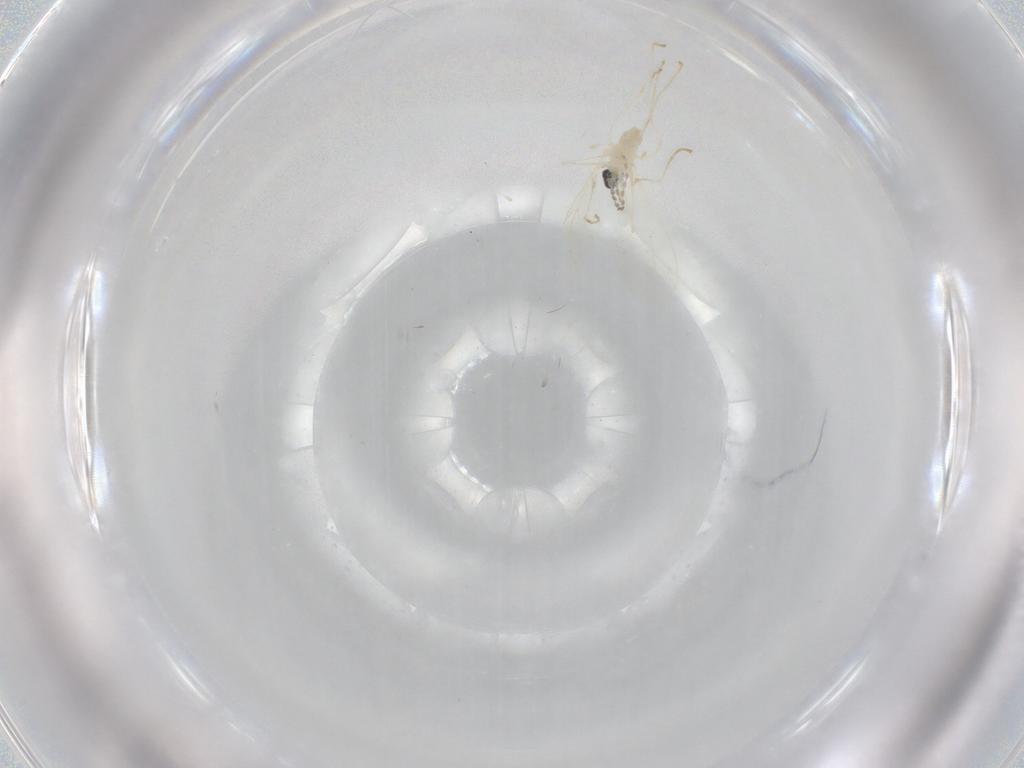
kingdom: Animalia
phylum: Arthropoda
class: Insecta
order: Diptera
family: Cecidomyiidae
